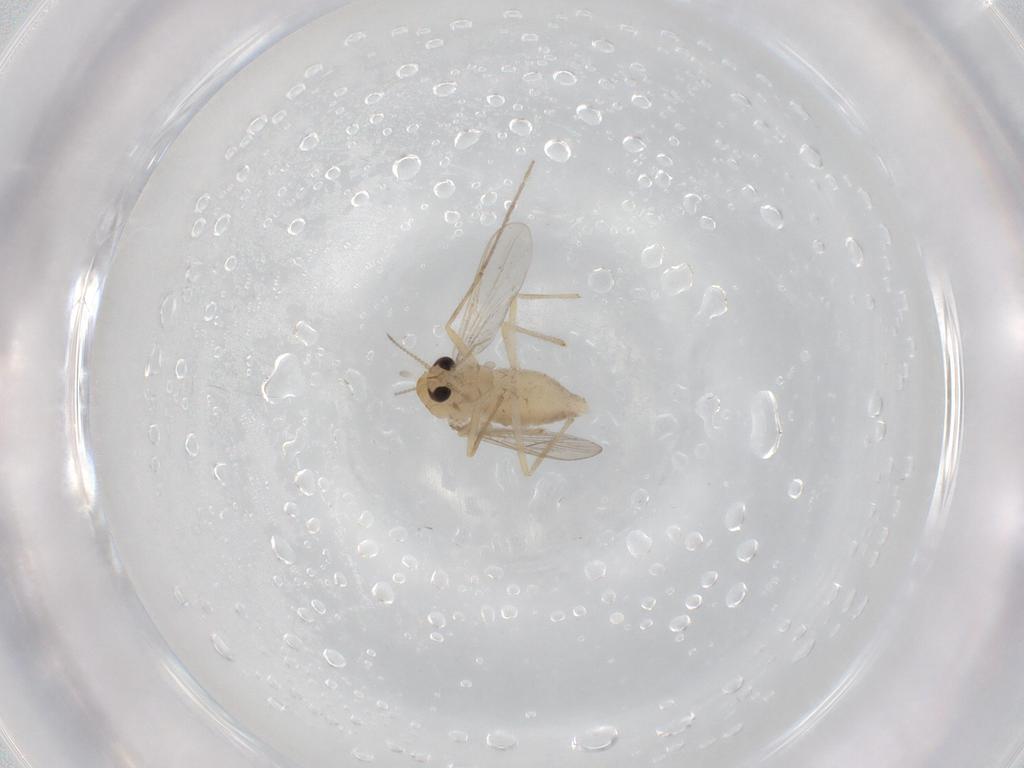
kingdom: Animalia
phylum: Arthropoda
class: Insecta
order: Diptera
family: Chironomidae
